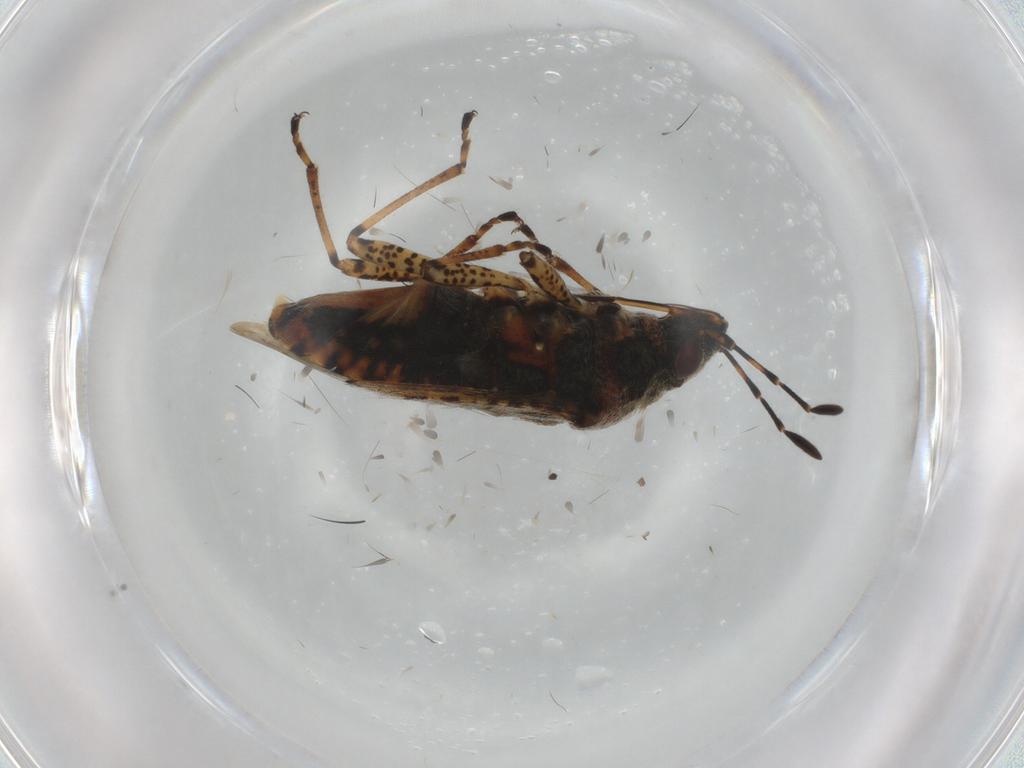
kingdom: Animalia
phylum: Arthropoda
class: Insecta
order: Hemiptera
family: Lygaeidae
